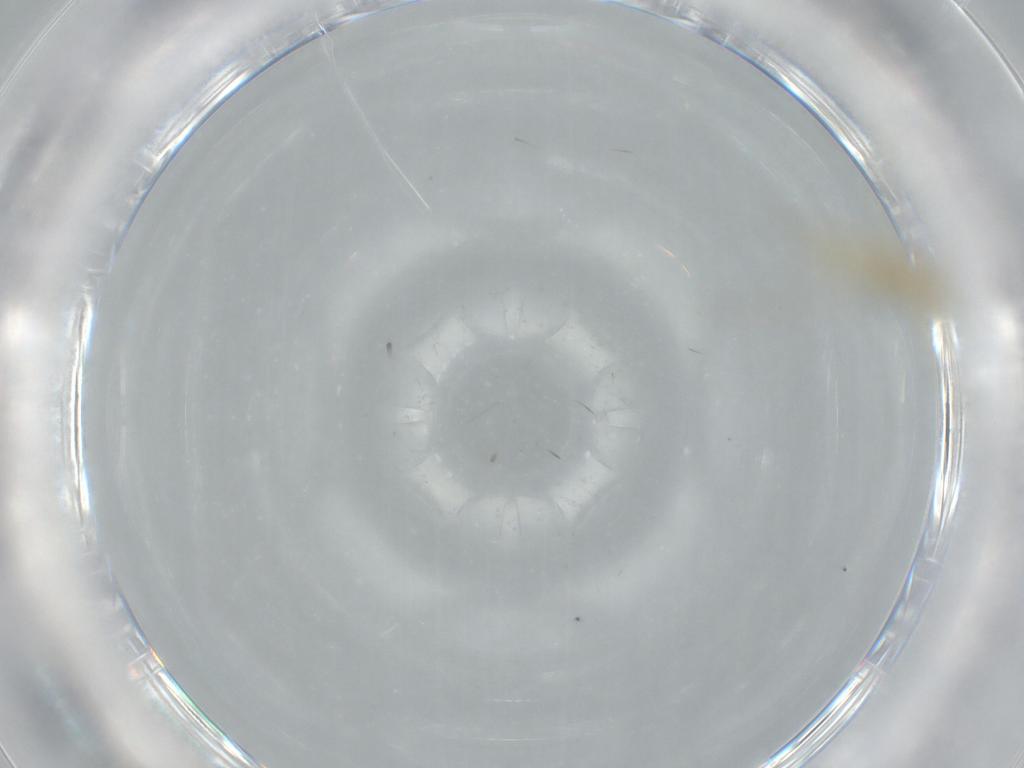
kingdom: Animalia
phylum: Arthropoda
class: Insecta
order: Diptera
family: Chironomidae
